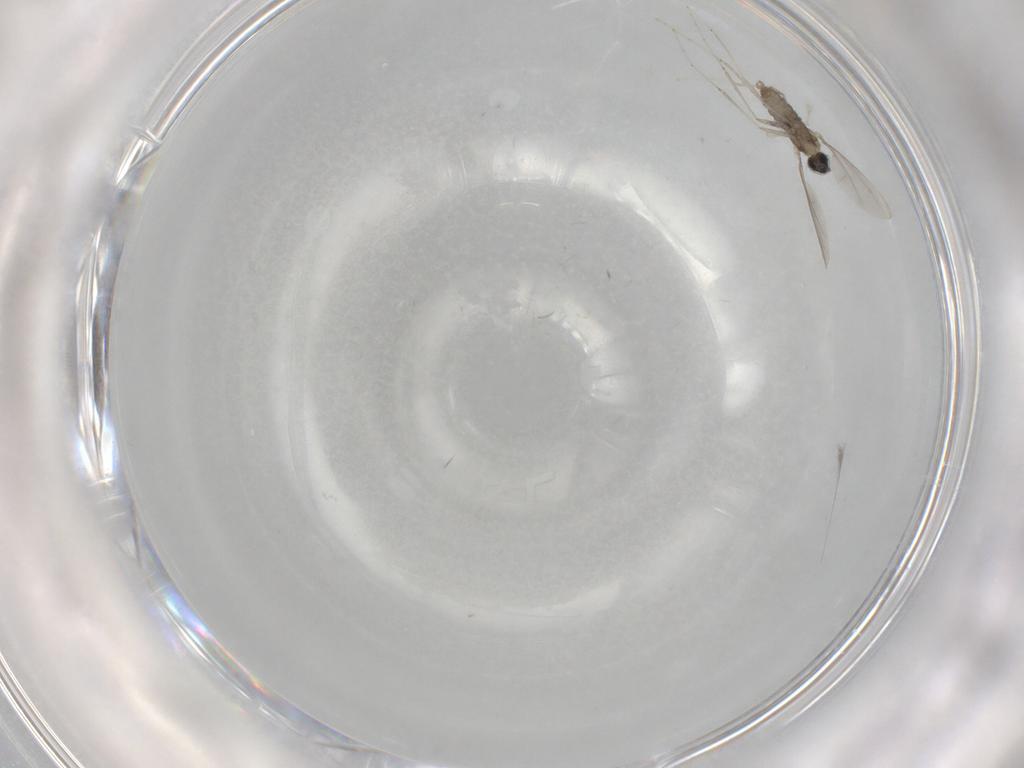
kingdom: Animalia
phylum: Arthropoda
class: Insecta
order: Diptera
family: Cecidomyiidae
